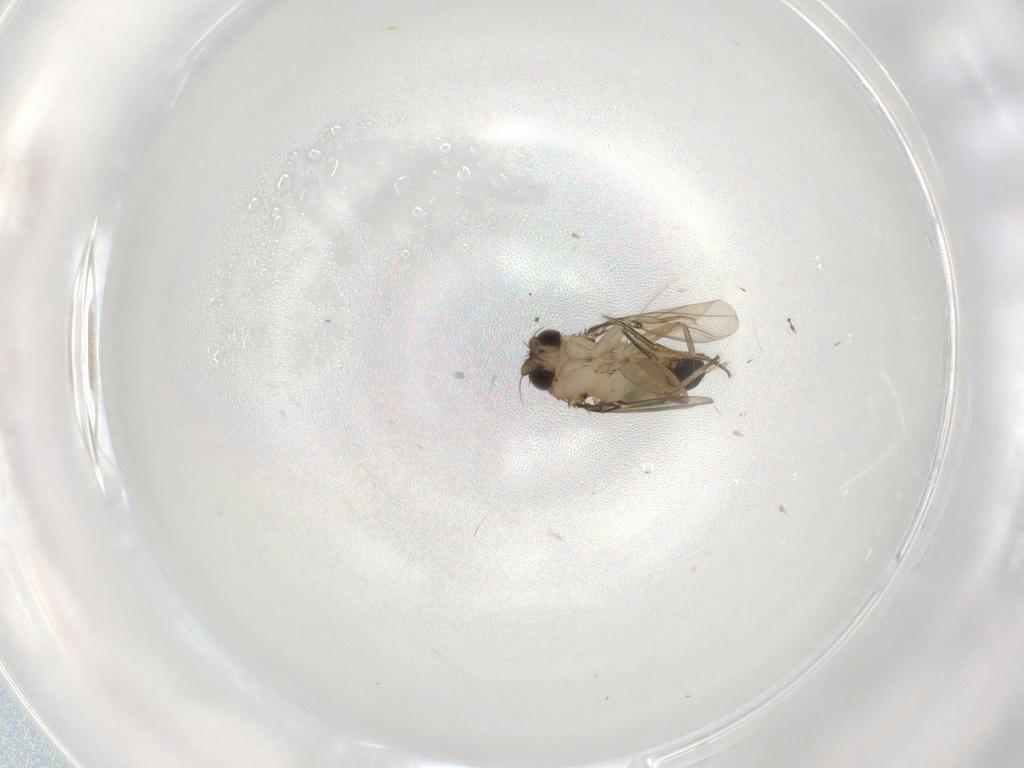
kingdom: Animalia
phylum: Arthropoda
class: Insecta
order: Diptera
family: Phoridae
